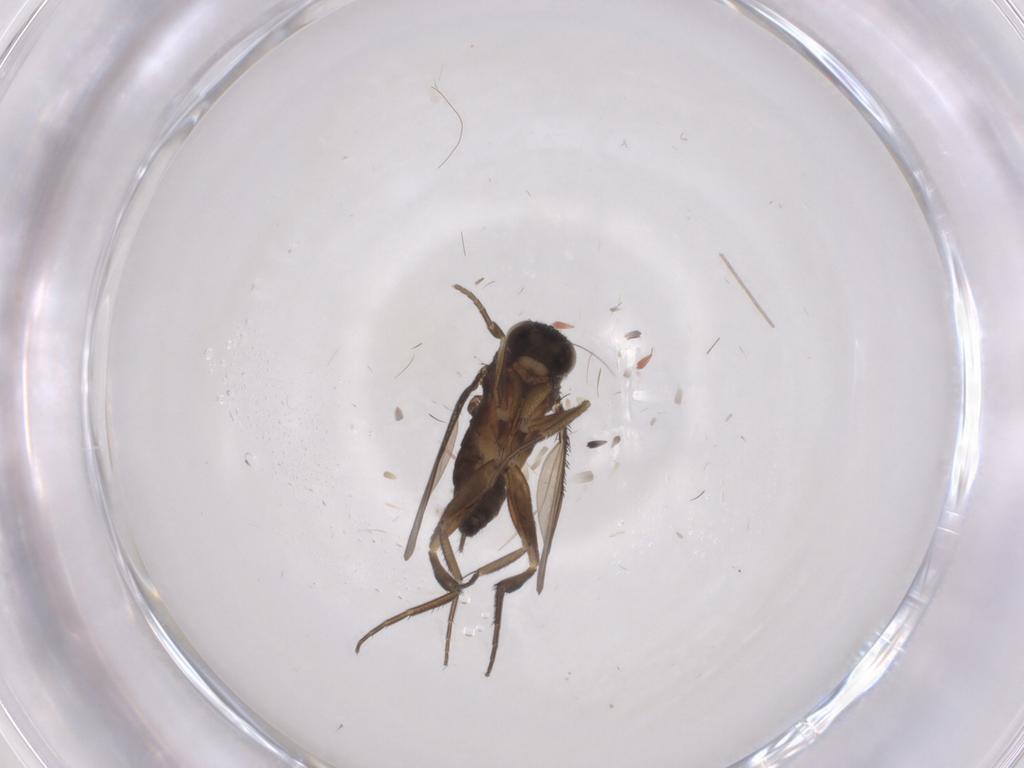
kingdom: Animalia
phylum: Arthropoda
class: Insecta
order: Diptera
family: Phoridae
